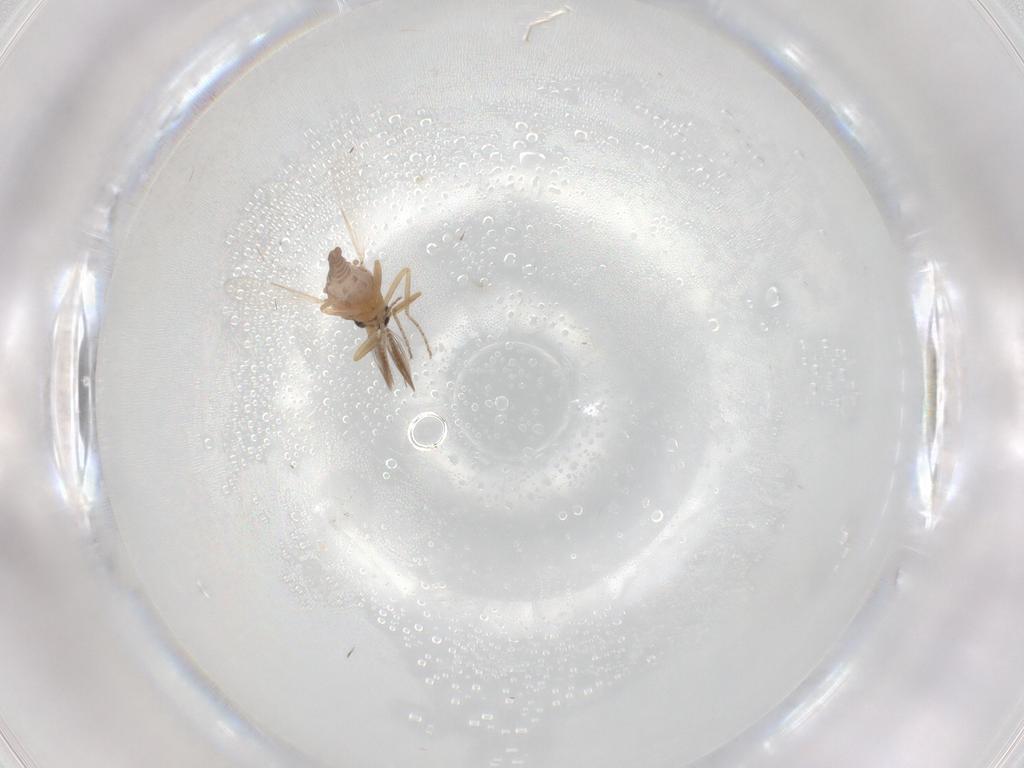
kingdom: Animalia
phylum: Arthropoda
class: Insecta
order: Diptera
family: Ceratopogonidae
